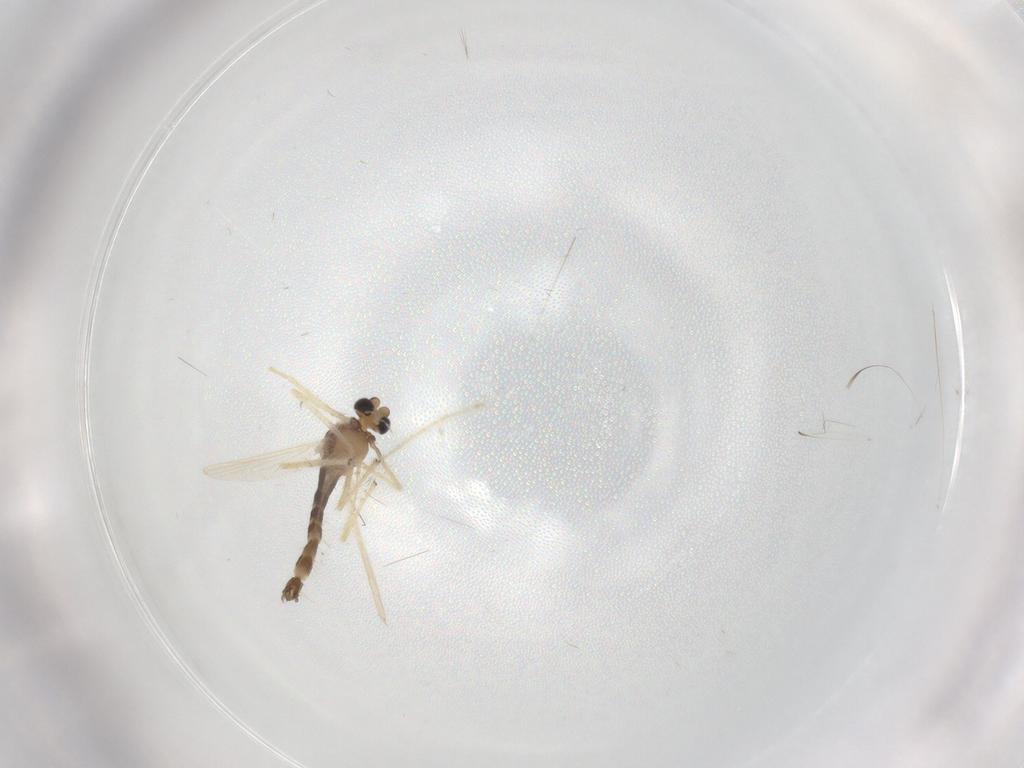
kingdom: Animalia
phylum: Arthropoda
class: Insecta
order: Diptera
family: Chironomidae
